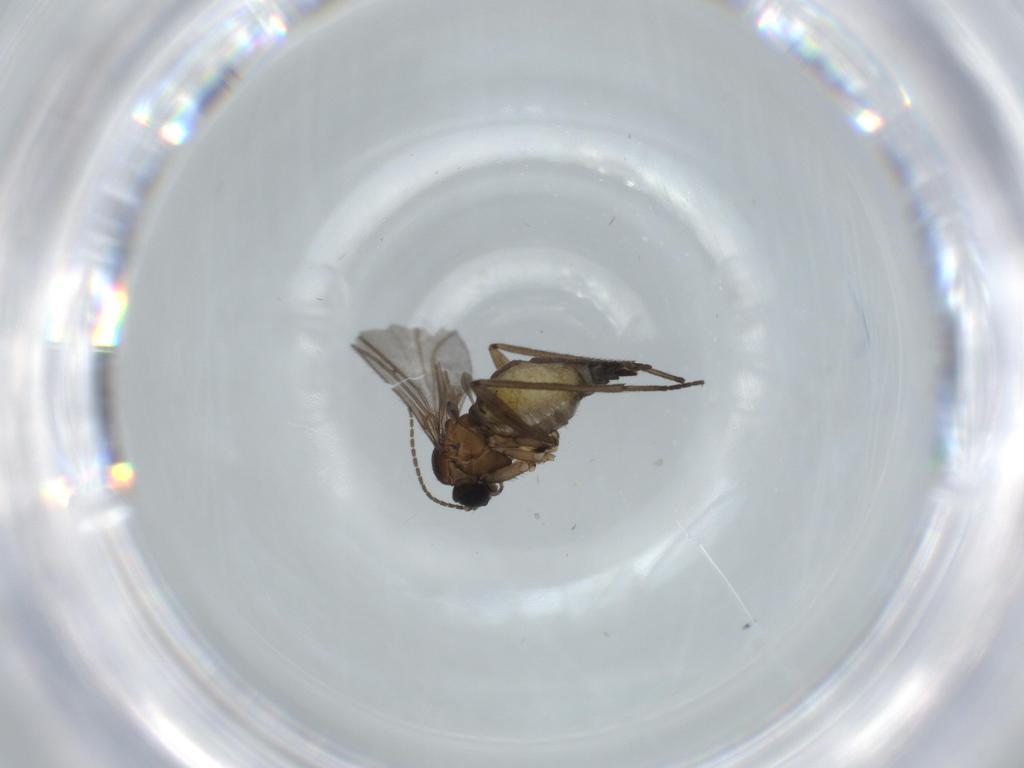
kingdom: Animalia
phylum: Arthropoda
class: Insecta
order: Diptera
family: Sciaridae
